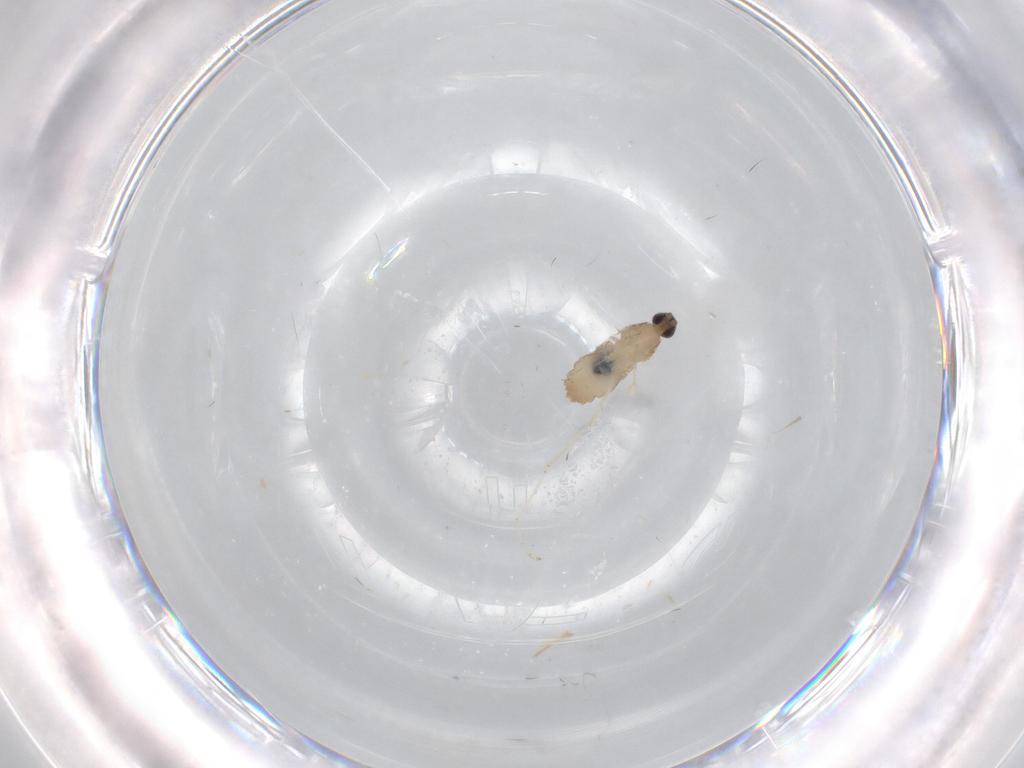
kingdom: Animalia
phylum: Arthropoda
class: Insecta
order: Diptera
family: Cecidomyiidae
